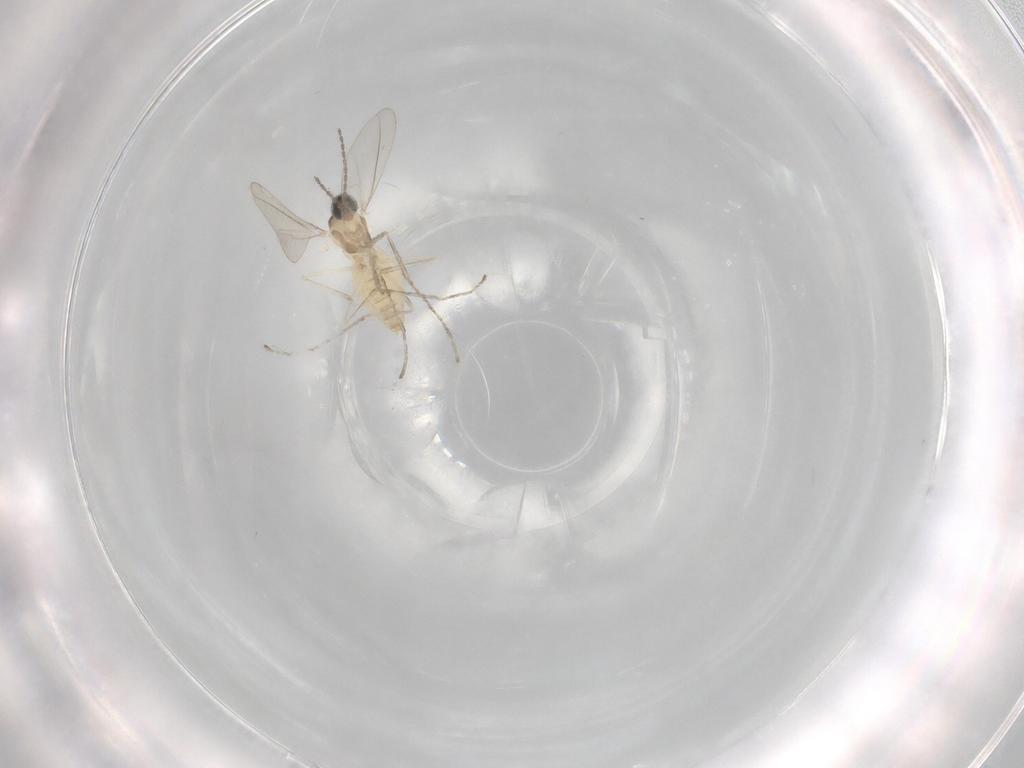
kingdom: Animalia
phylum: Arthropoda
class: Insecta
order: Diptera
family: Cecidomyiidae
